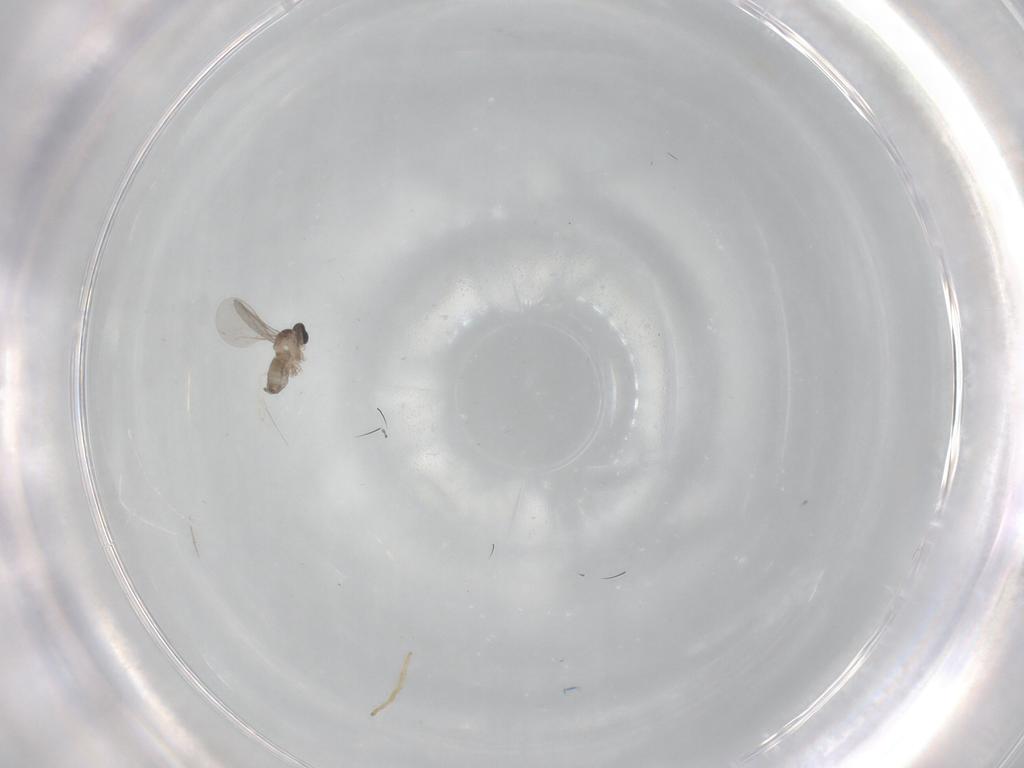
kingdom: Animalia
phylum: Arthropoda
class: Insecta
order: Diptera
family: Cecidomyiidae
